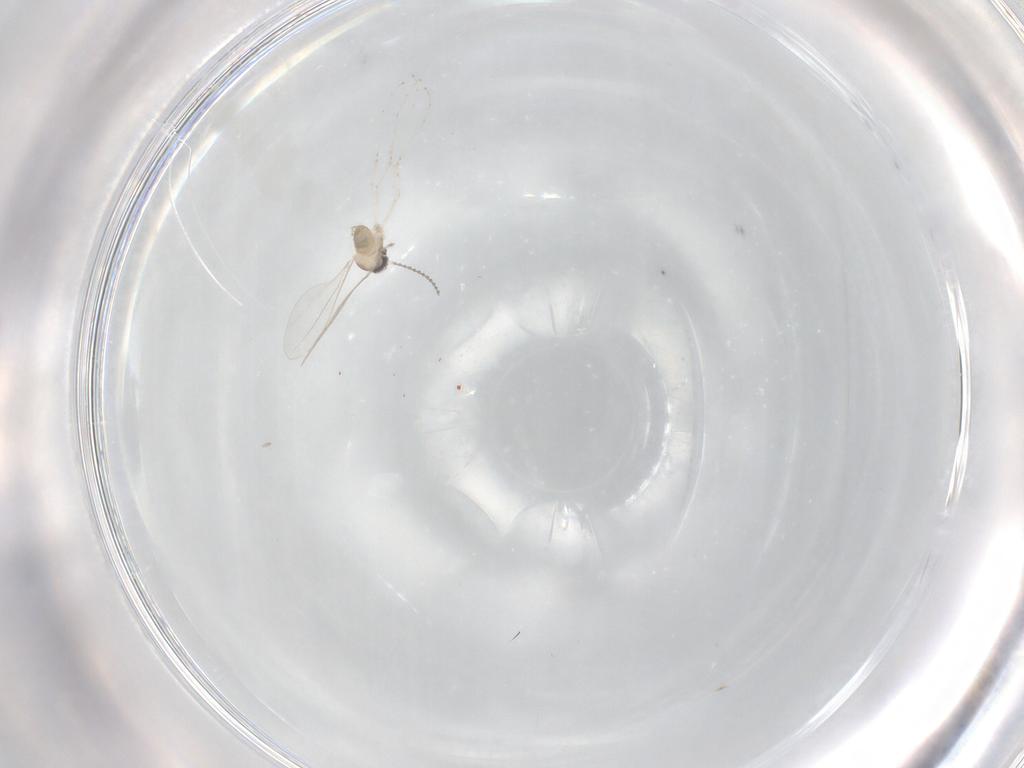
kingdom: Animalia
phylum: Arthropoda
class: Insecta
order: Diptera
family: Cecidomyiidae
